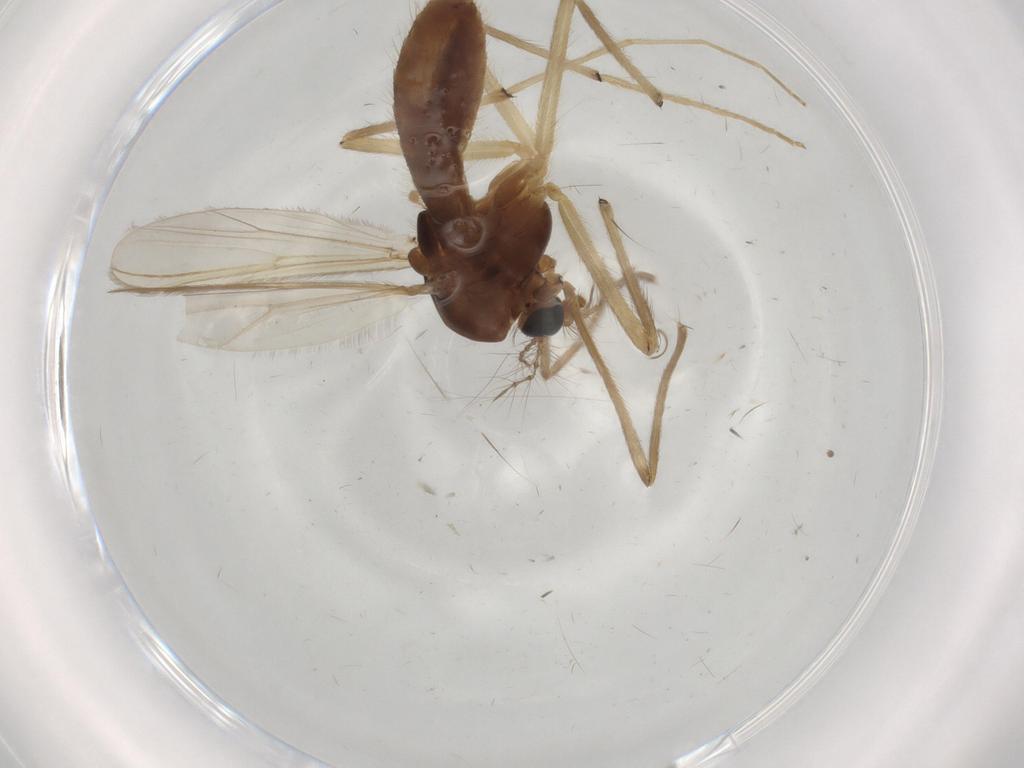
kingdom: Animalia
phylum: Arthropoda
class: Insecta
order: Diptera
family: Chironomidae
